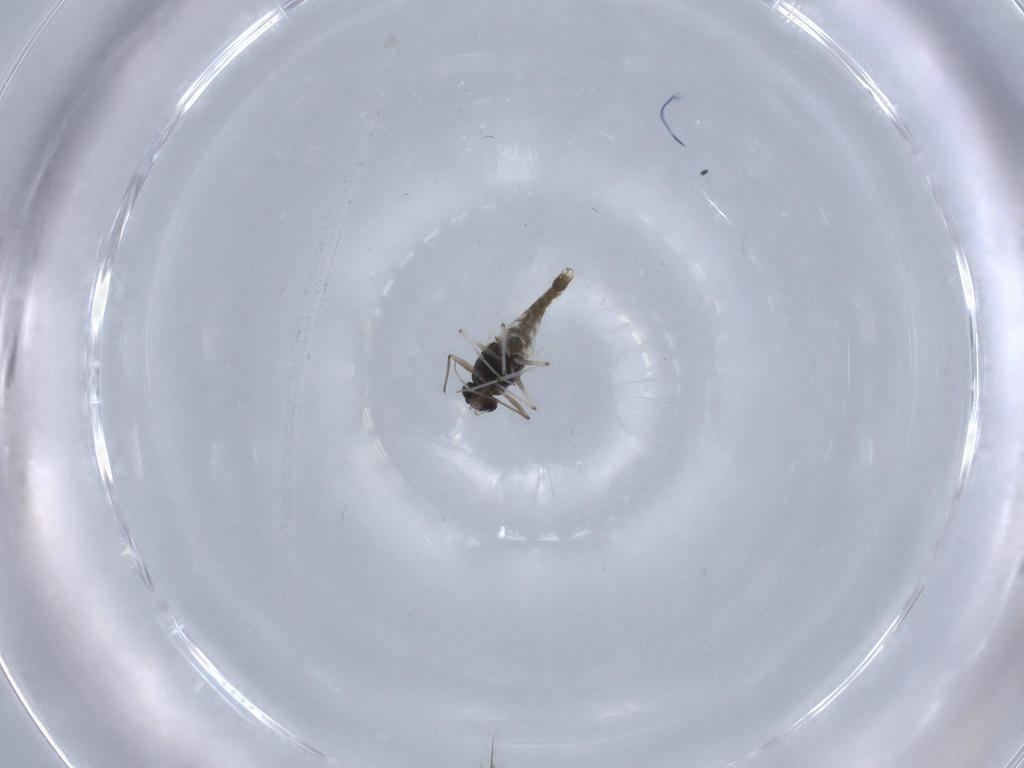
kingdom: Animalia
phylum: Arthropoda
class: Insecta
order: Diptera
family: Chironomidae
